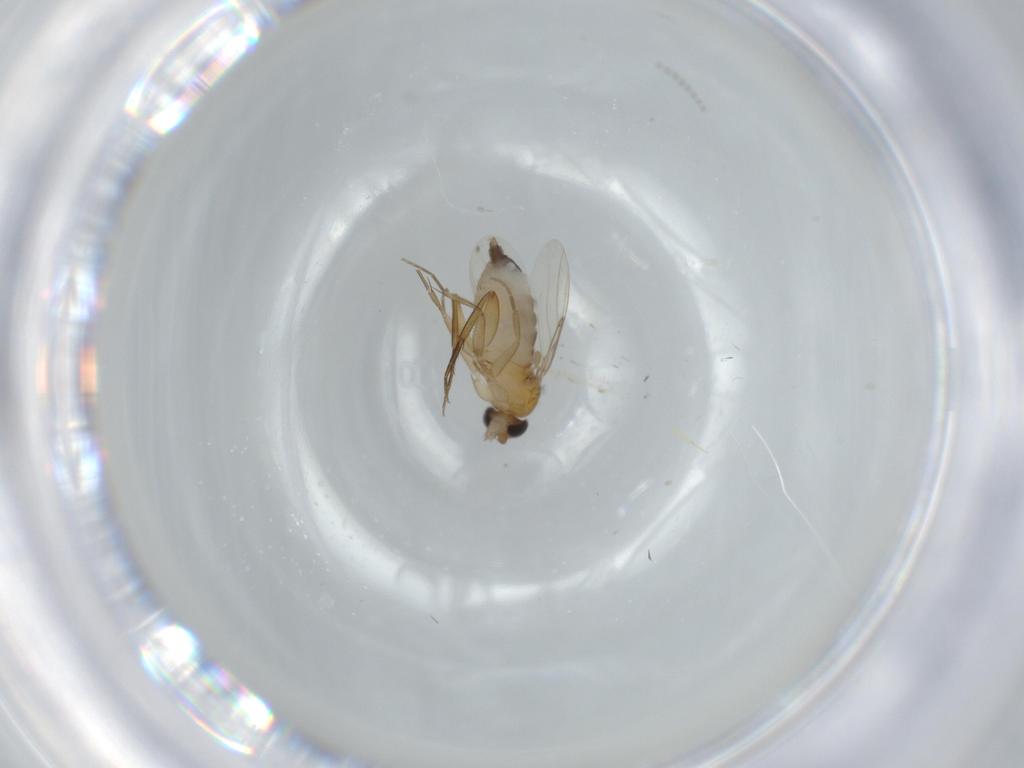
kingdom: Animalia
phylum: Arthropoda
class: Insecta
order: Diptera
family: Phoridae
